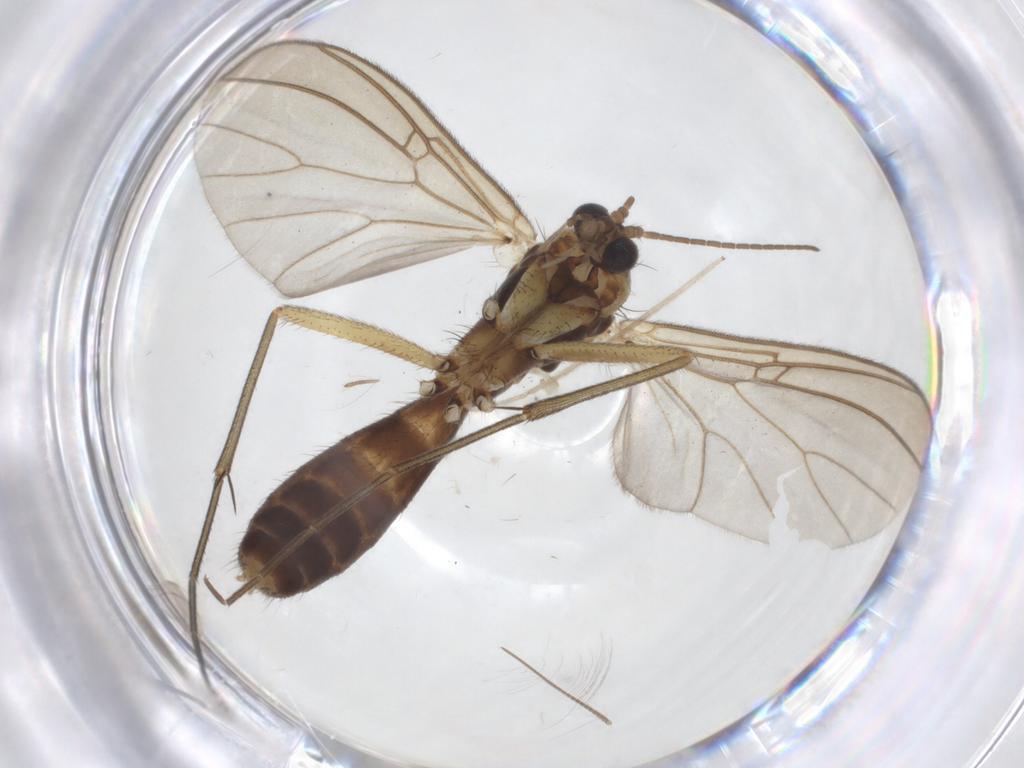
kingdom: Animalia
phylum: Arthropoda
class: Insecta
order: Diptera
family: Mycetophilidae
